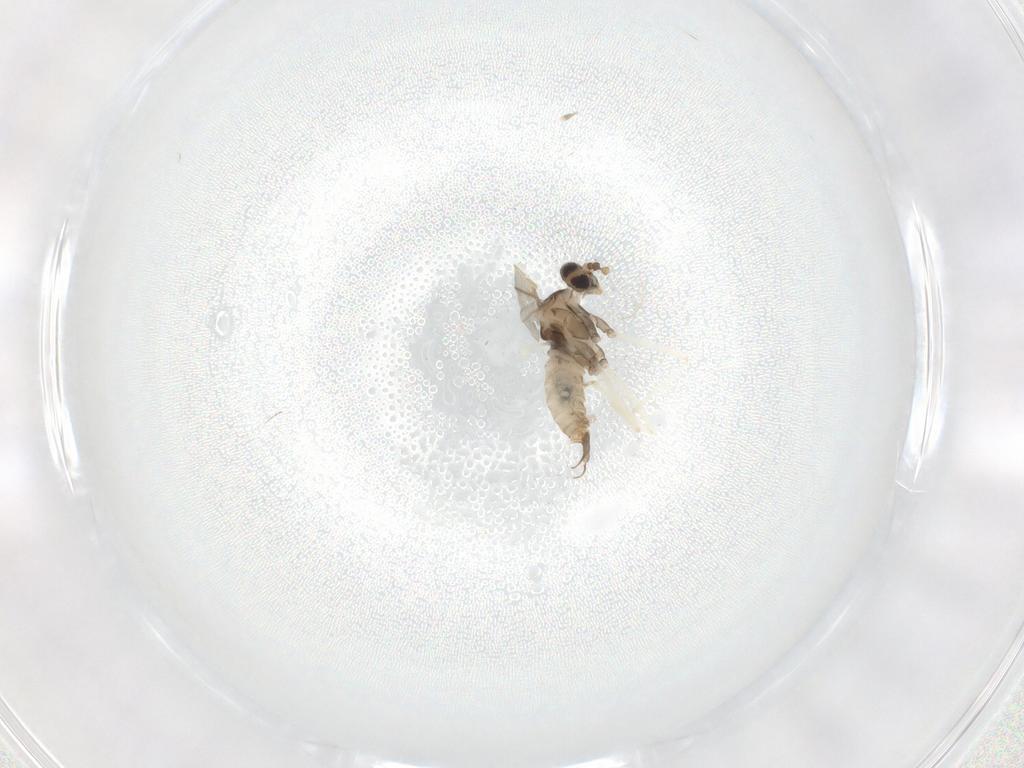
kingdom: Animalia
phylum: Arthropoda
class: Insecta
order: Diptera
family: Cecidomyiidae
